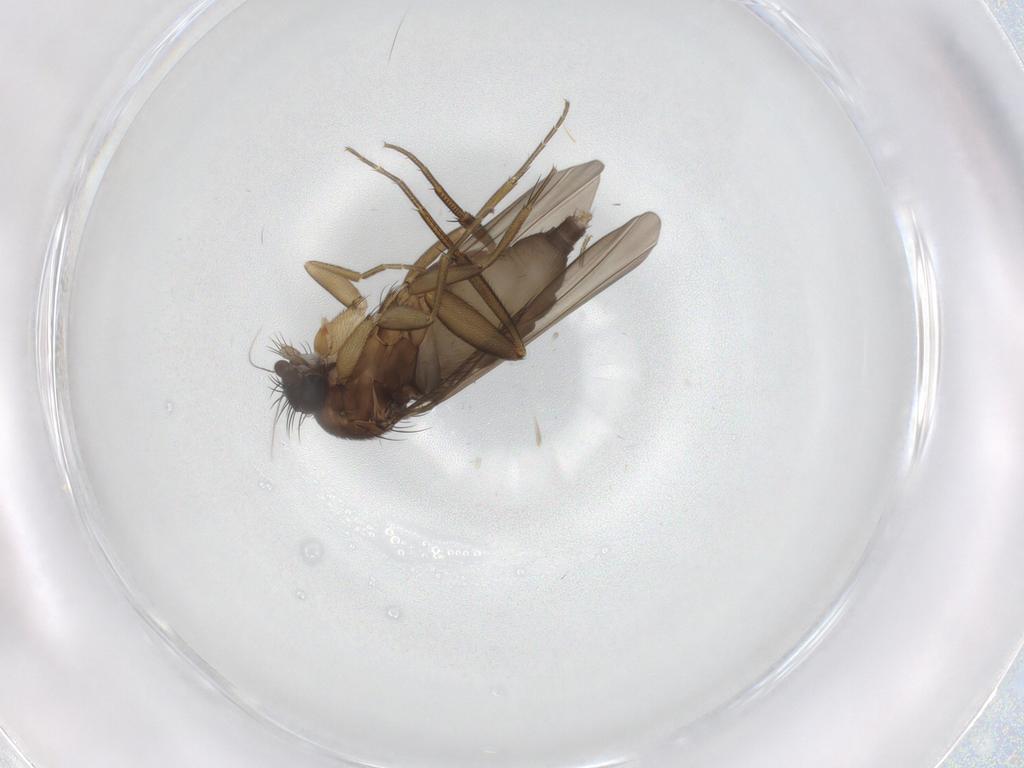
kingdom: Animalia
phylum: Arthropoda
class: Insecta
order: Diptera
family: Phoridae
